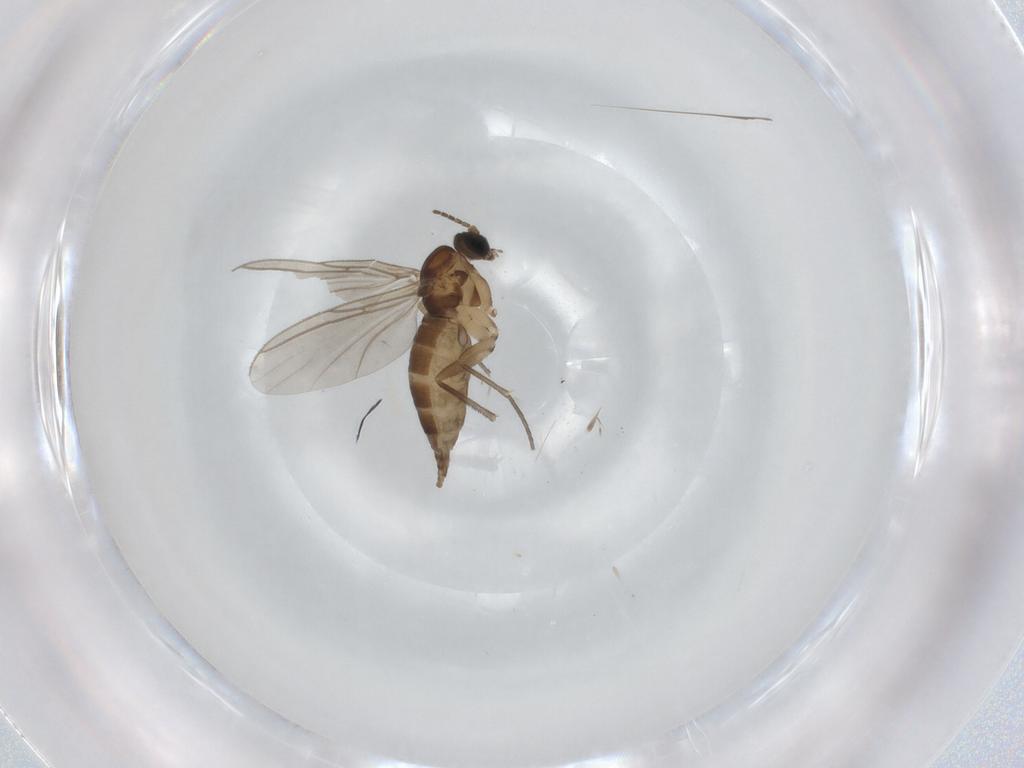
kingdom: Animalia
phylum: Arthropoda
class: Insecta
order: Diptera
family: Sciaridae
